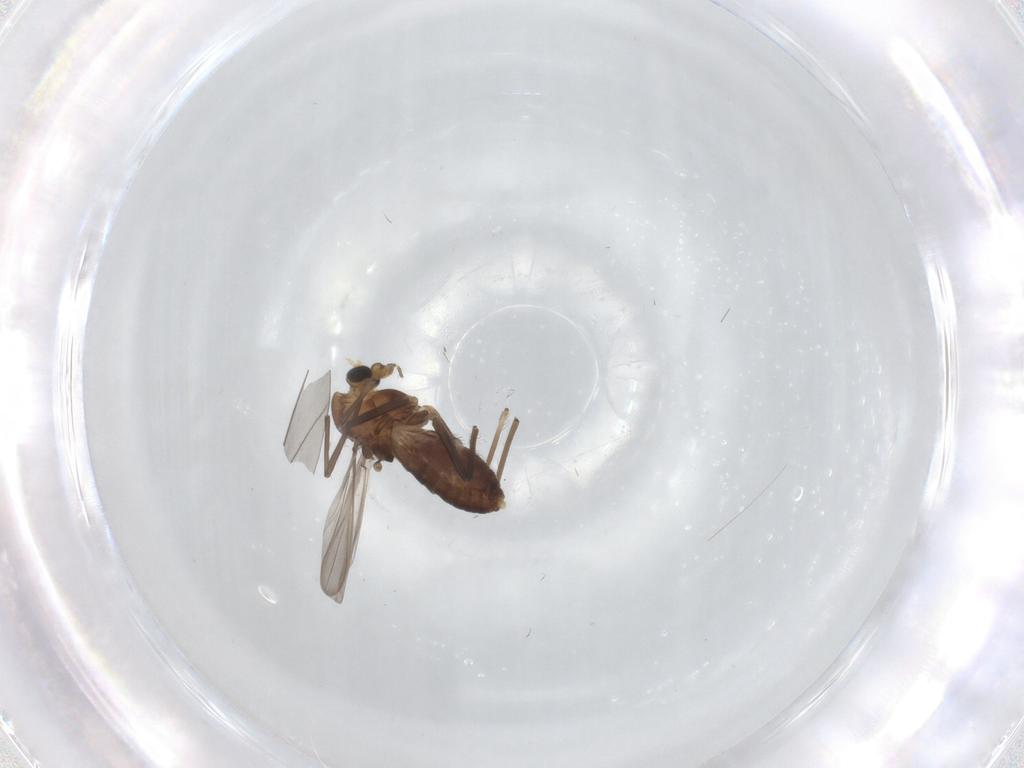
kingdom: Animalia
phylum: Arthropoda
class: Insecta
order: Diptera
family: Chironomidae
